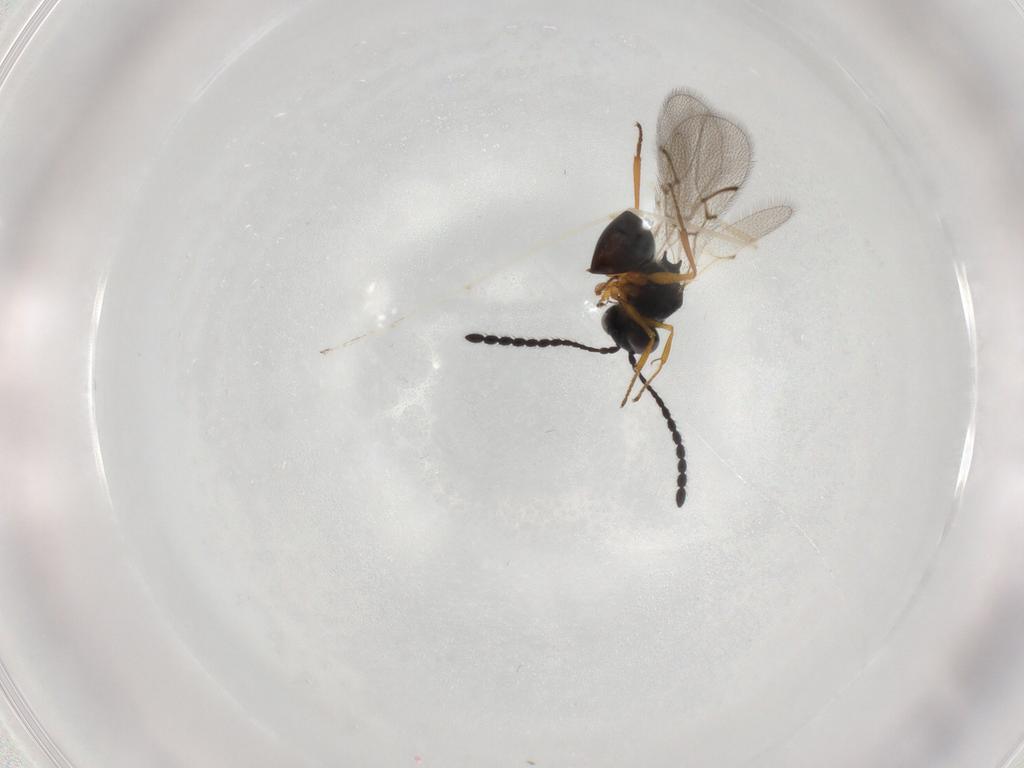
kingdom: Animalia
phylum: Arthropoda
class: Insecta
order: Hymenoptera
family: Figitidae
